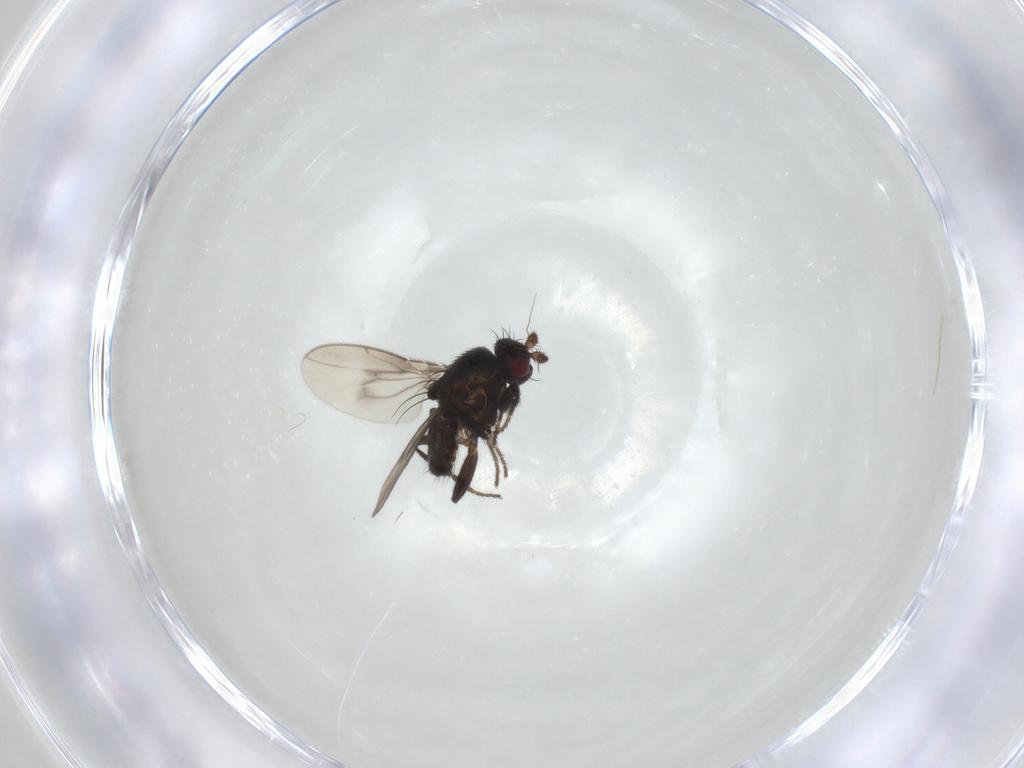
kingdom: Animalia
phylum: Arthropoda
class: Insecta
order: Diptera
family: Sphaeroceridae
